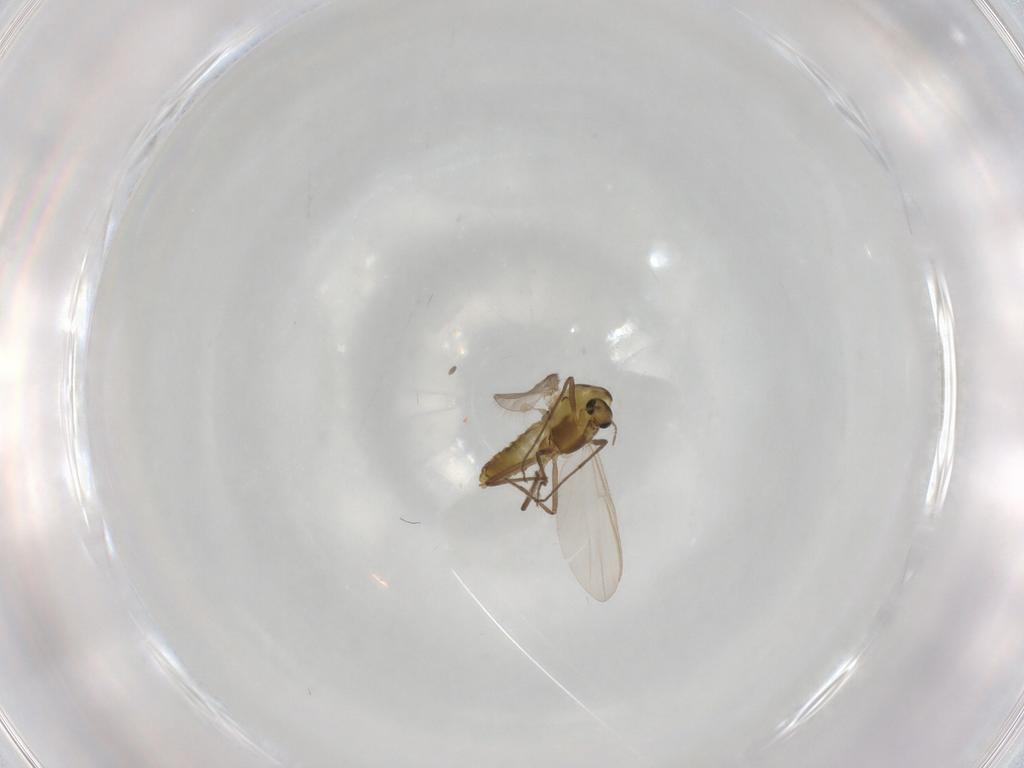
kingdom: Animalia
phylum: Arthropoda
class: Insecta
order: Diptera
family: Chironomidae
